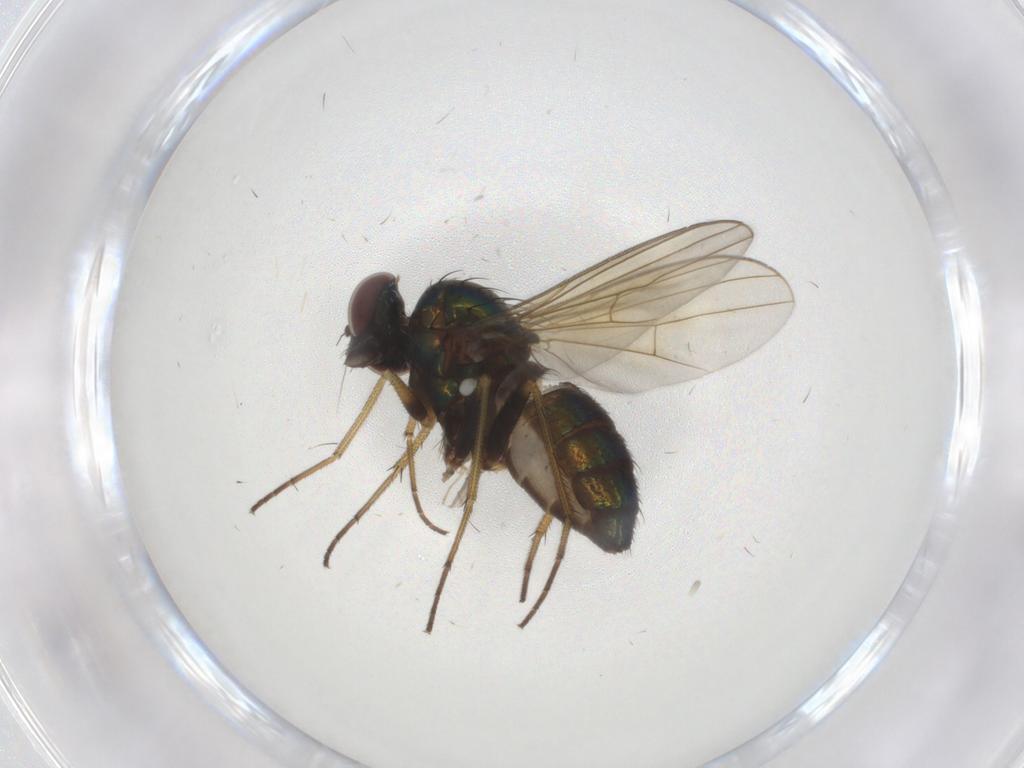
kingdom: Animalia
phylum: Arthropoda
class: Insecta
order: Diptera
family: Dolichopodidae
